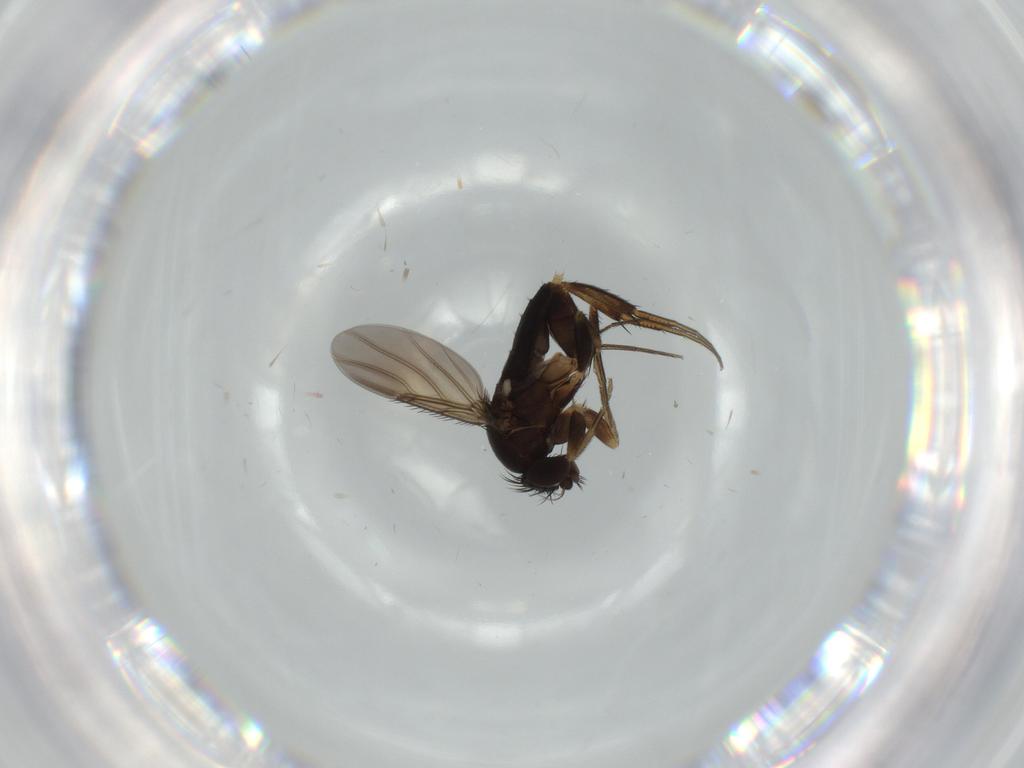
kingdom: Animalia
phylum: Arthropoda
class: Insecta
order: Diptera
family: Phoridae
